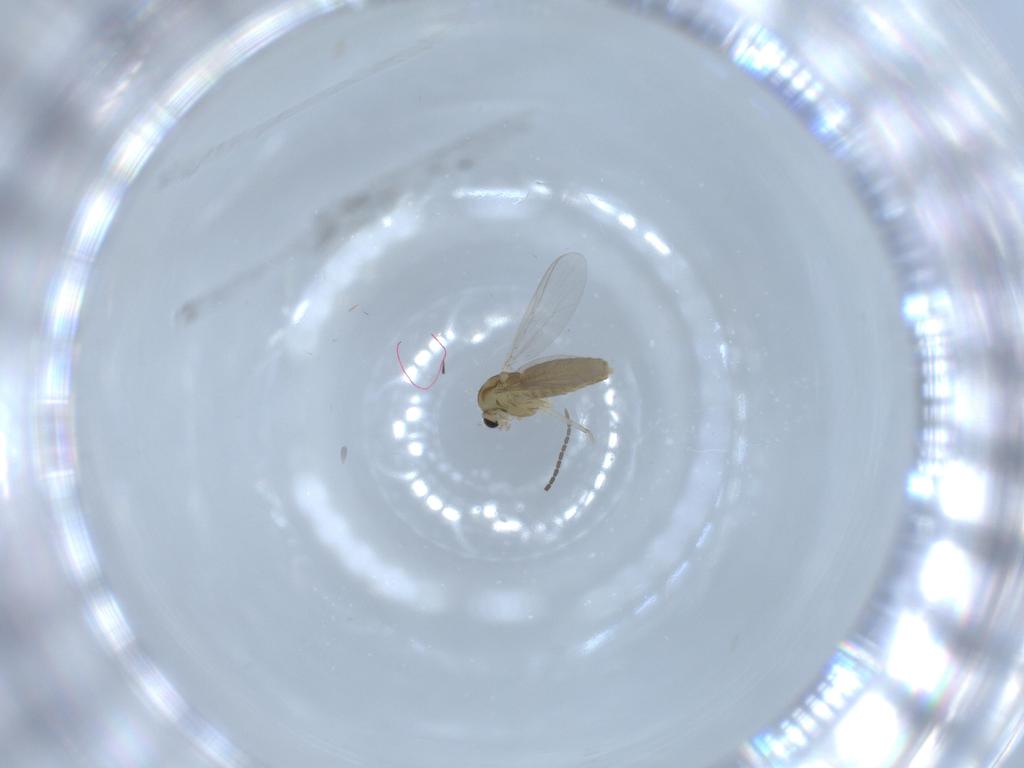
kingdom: Animalia
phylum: Arthropoda
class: Insecta
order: Diptera
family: Chironomidae
